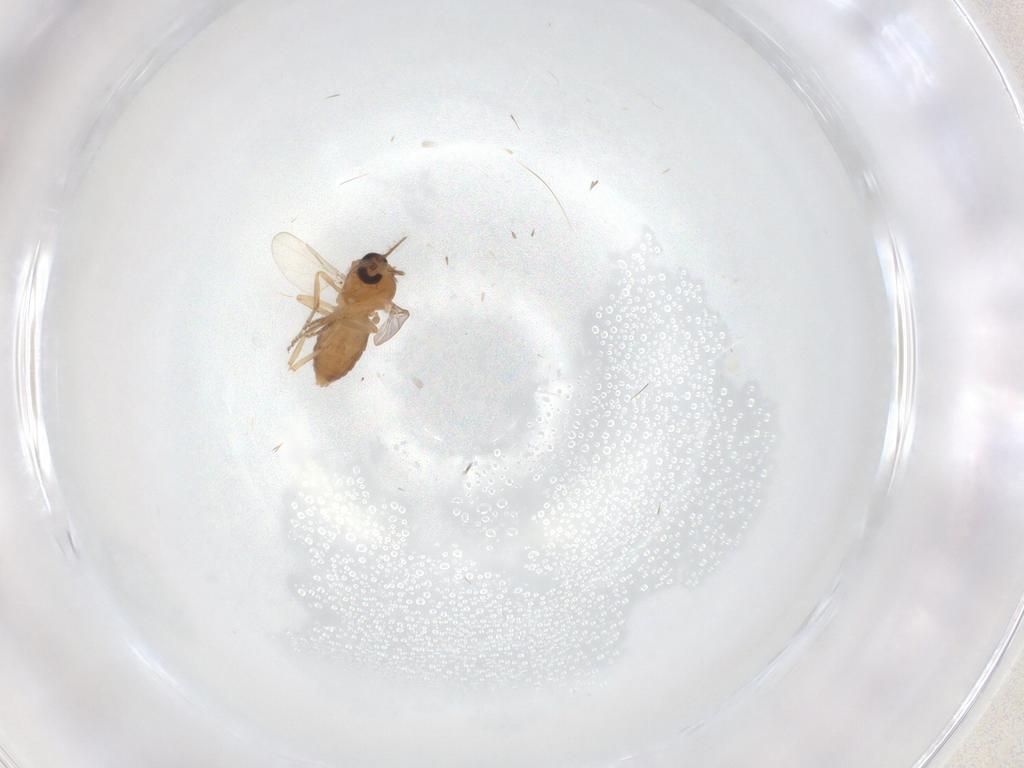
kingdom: Animalia
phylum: Arthropoda
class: Insecta
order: Diptera
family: Ceratopogonidae
